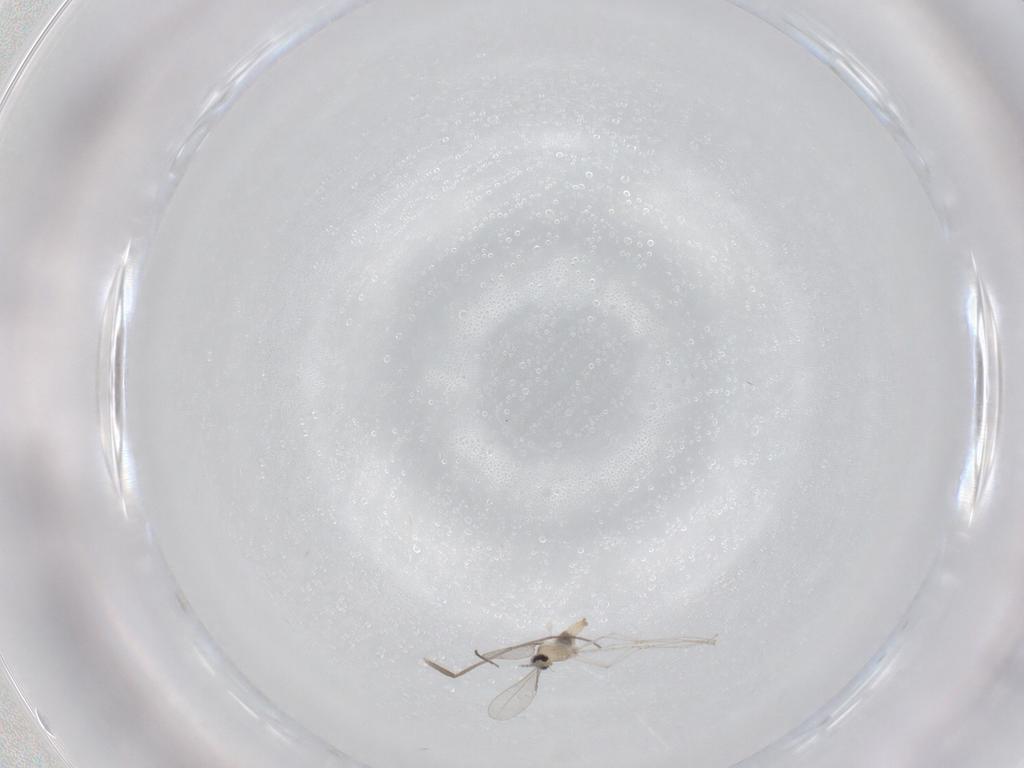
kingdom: Animalia
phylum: Arthropoda
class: Insecta
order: Diptera
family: Chironomidae
